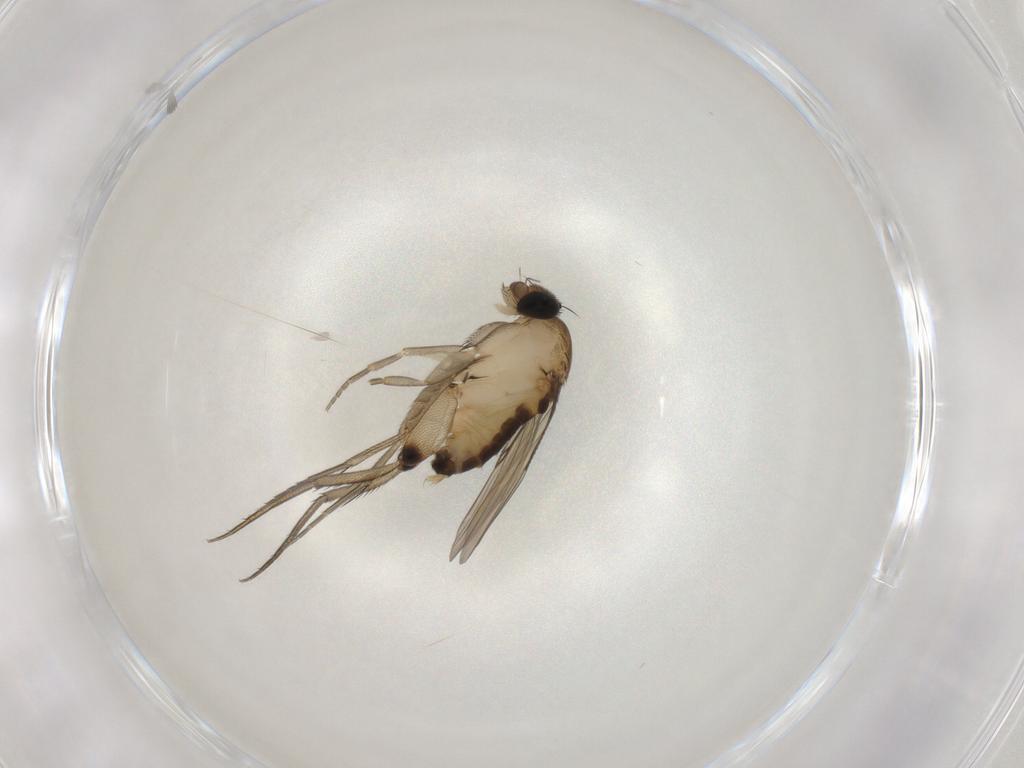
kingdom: Animalia
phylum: Arthropoda
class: Insecta
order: Diptera
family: Phoridae
